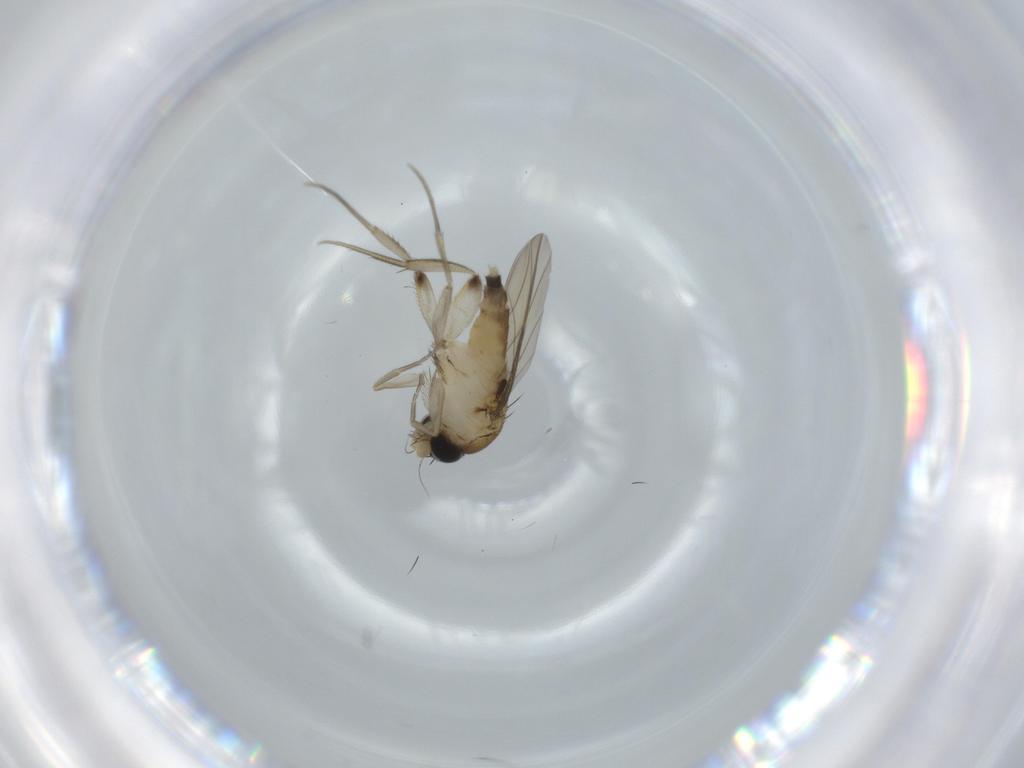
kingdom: Animalia
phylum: Arthropoda
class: Insecta
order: Diptera
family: Phoridae
